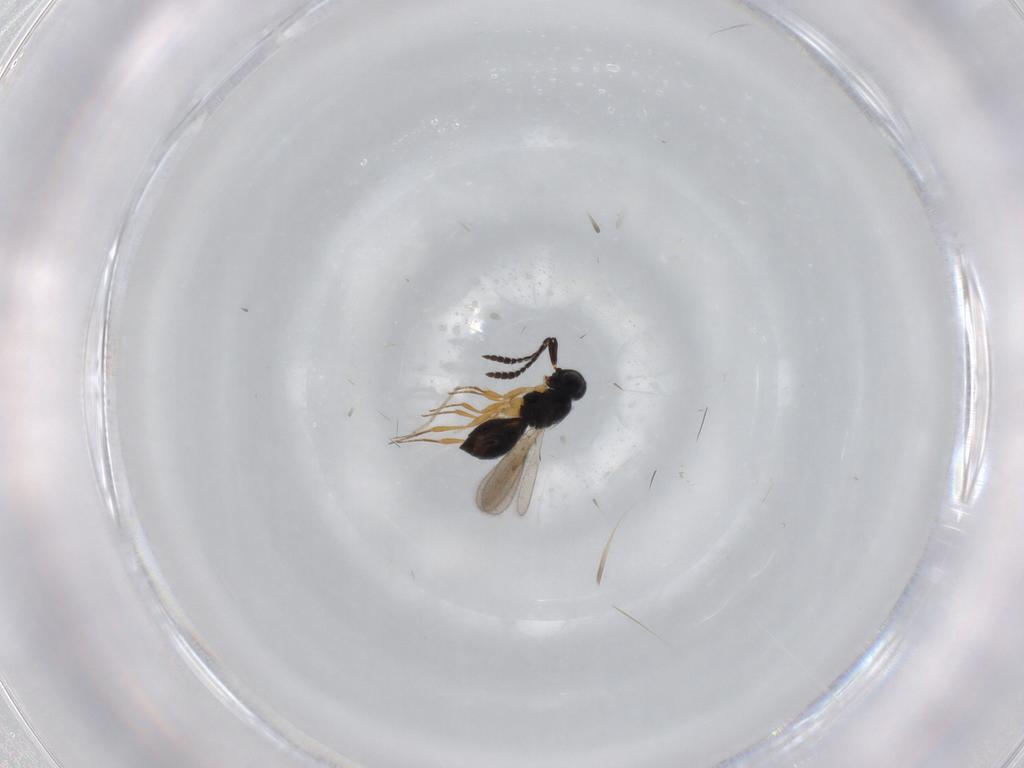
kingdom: Animalia
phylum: Arthropoda
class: Insecta
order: Hymenoptera
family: Scelionidae
